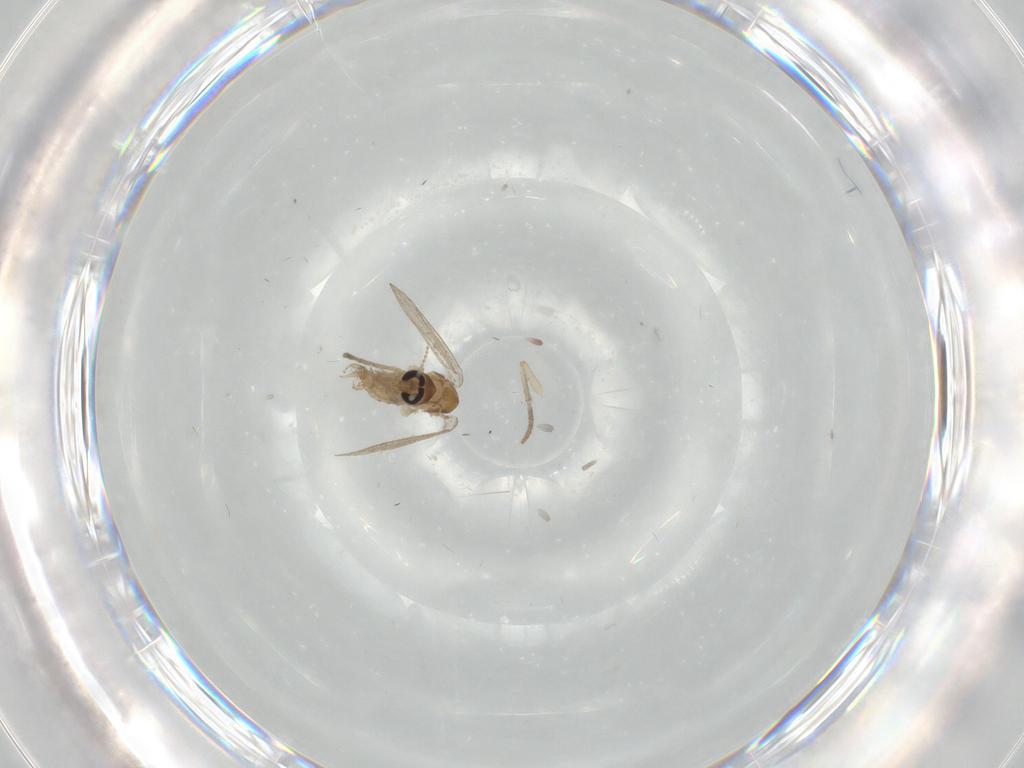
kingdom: Animalia
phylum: Arthropoda
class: Insecta
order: Diptera
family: Psychodidae
